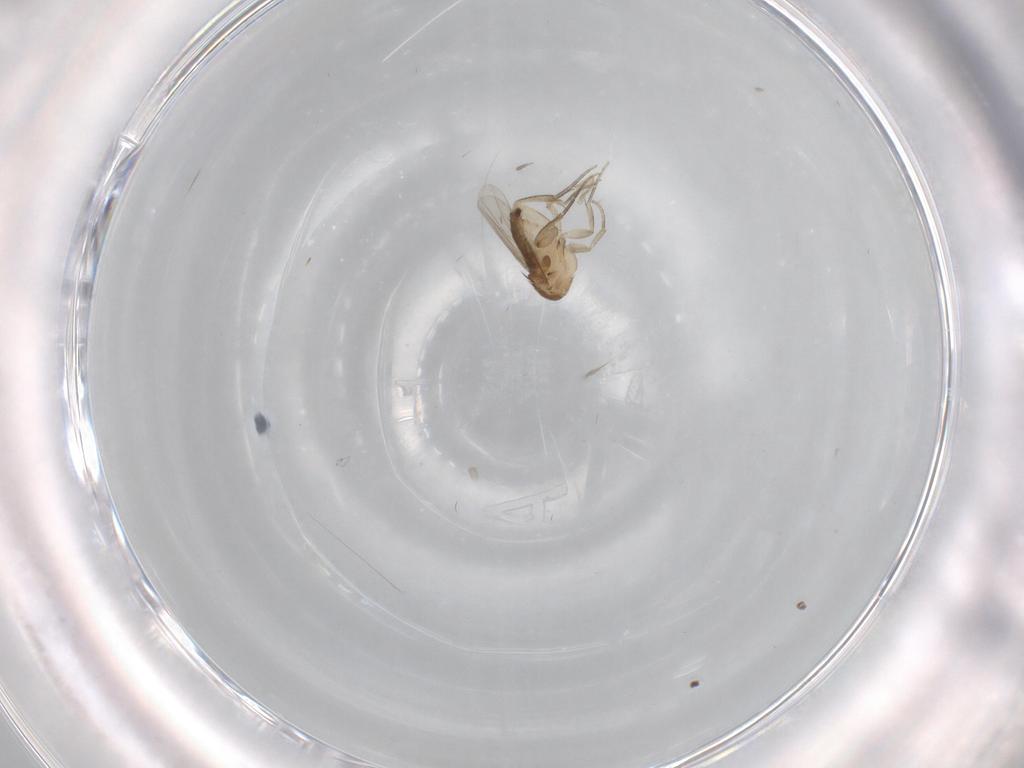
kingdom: Animalia
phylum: Arthropoda
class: Insecta
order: Diptera
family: Phoridae
